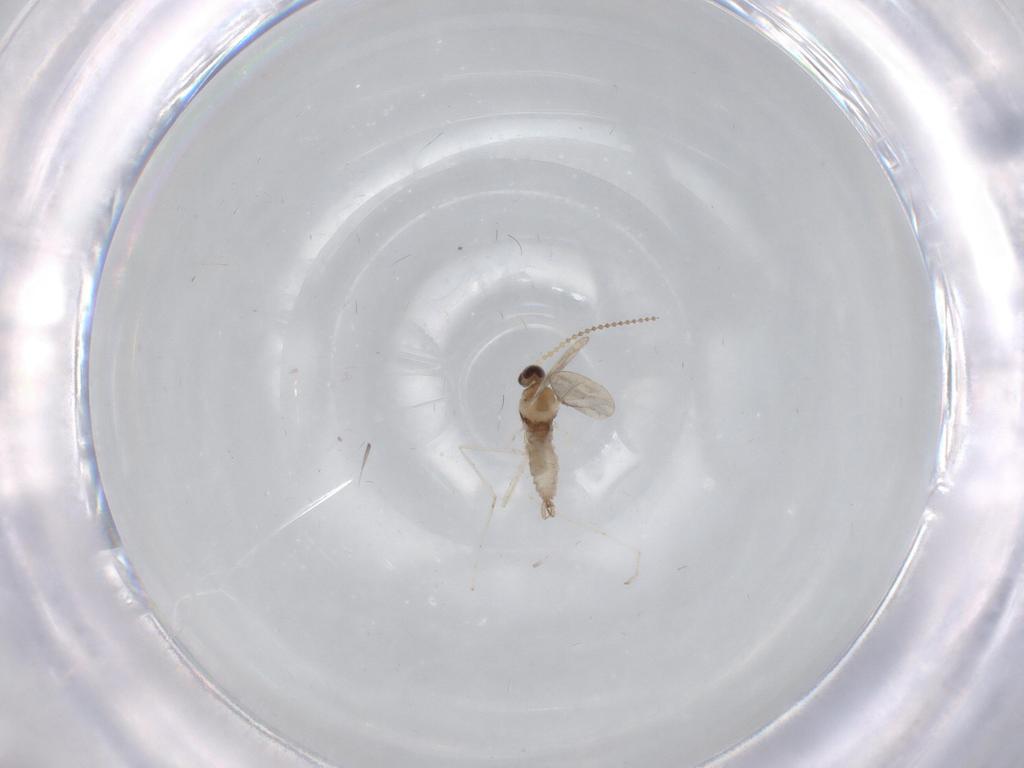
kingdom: Animalia
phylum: Arthropoda
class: Insecta
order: Diptera
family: Cecidomyiidae
